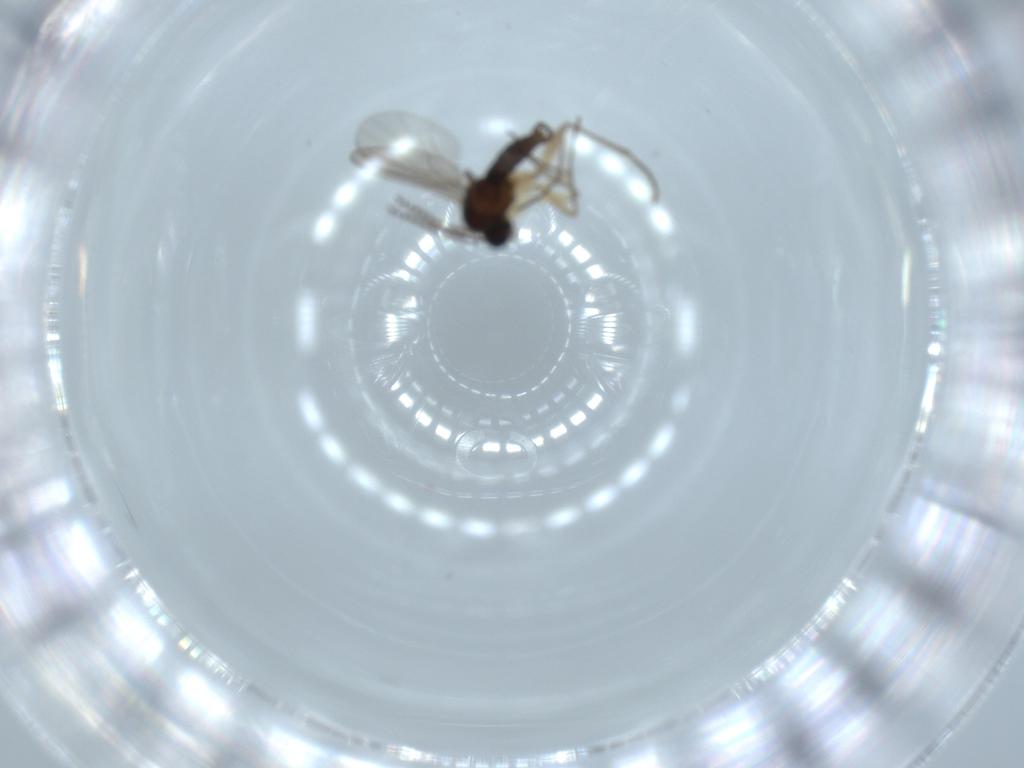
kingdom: Animalia
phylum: Arthropoda
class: Insecta
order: Diptera
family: Sciaridae
